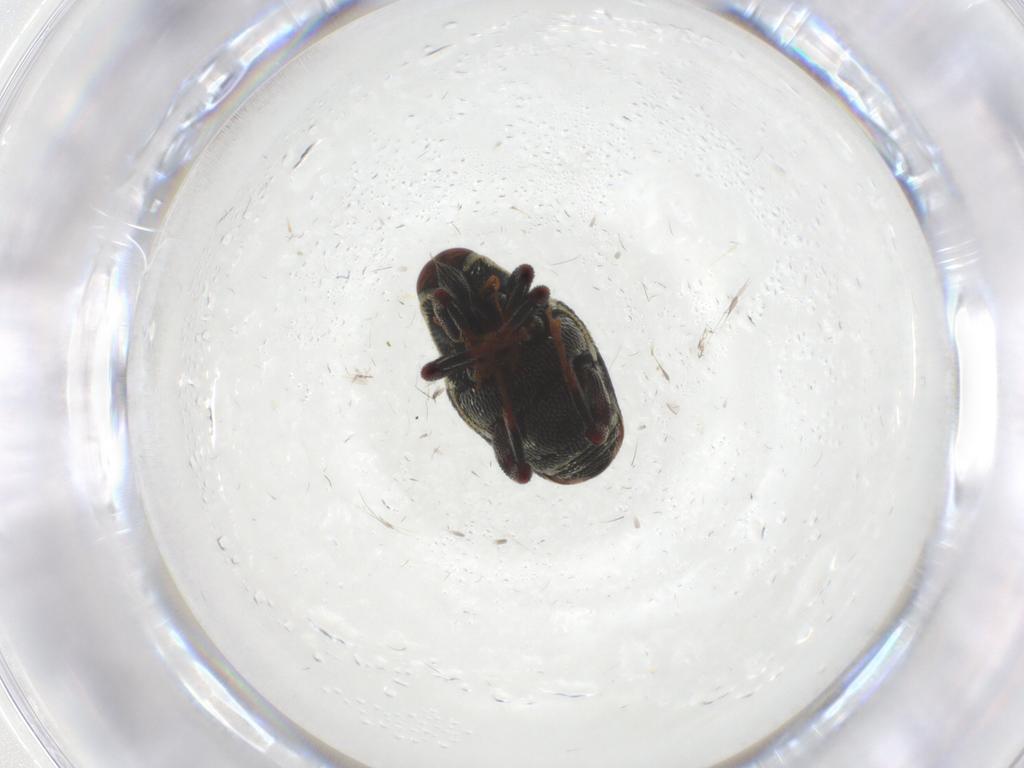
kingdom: Animalia
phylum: Arthropoda
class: Insecta
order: Coleoptera
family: Curculionidae
